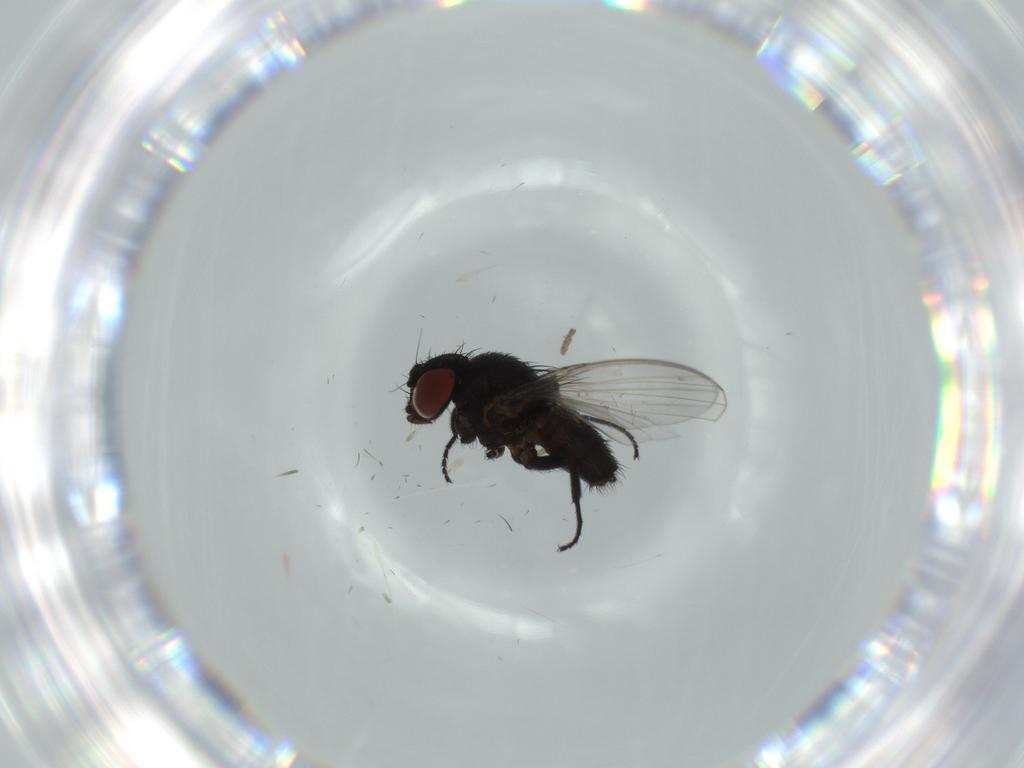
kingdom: Animalia
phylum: Arthropoda
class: Insecta
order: Diptera
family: Milichiidae
